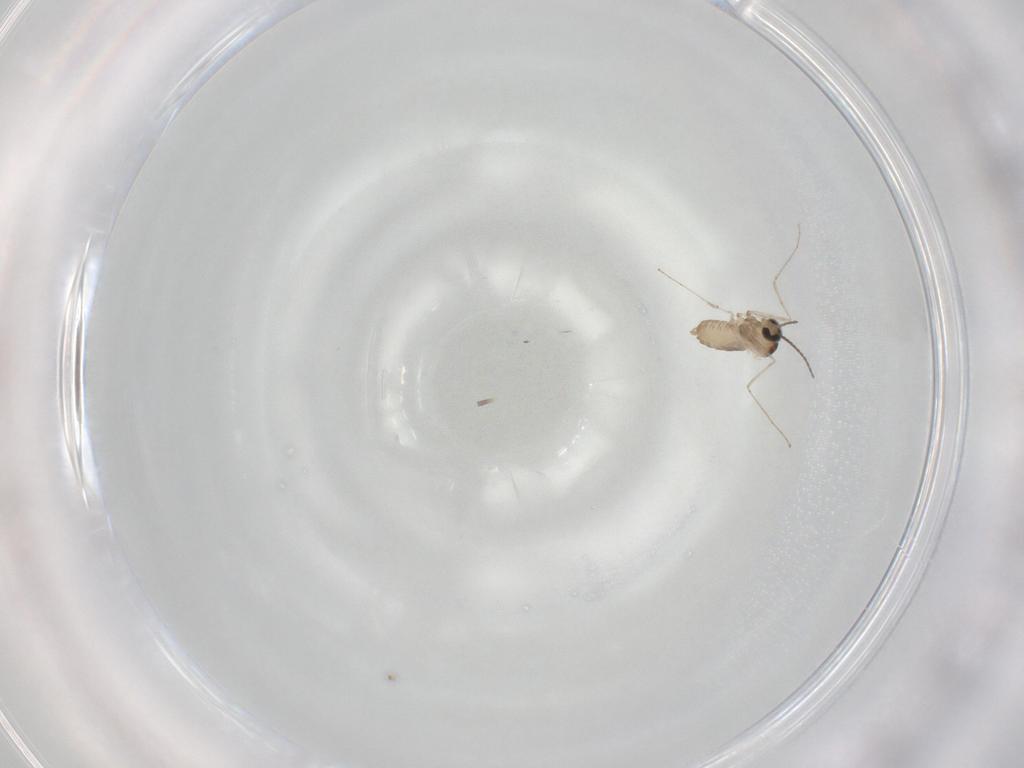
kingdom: Animalia
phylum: Arthropoda
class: Insecta
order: Diptera
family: Cecidomyiidae
